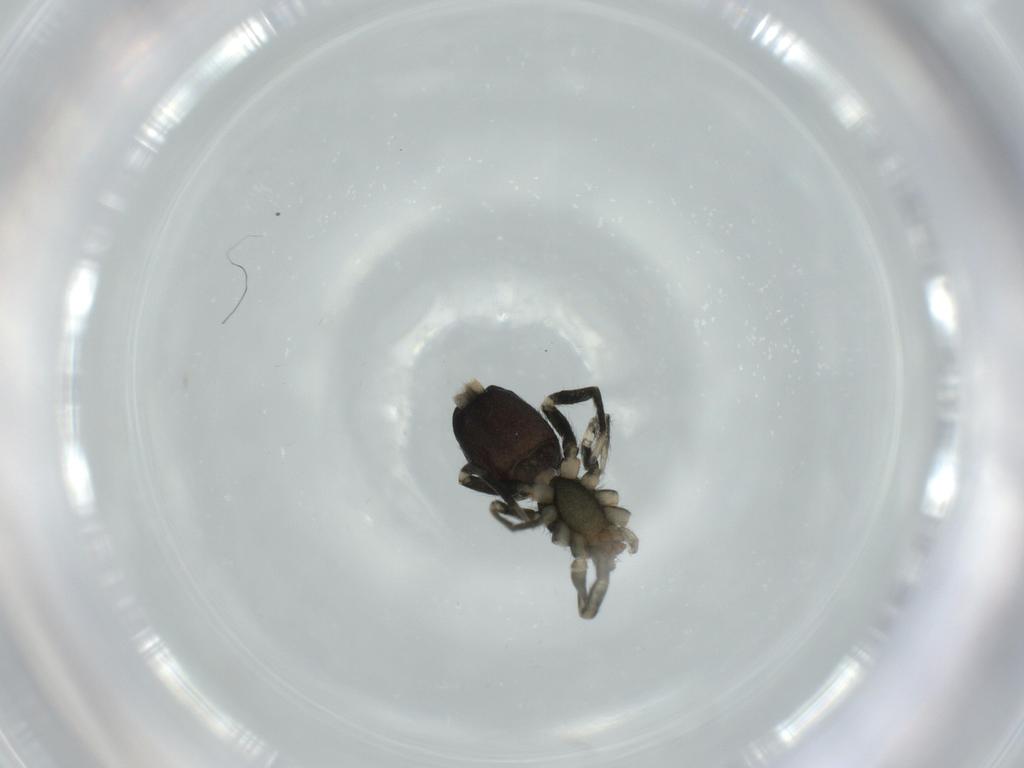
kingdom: Animalia
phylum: Arthropoda
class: Arachnida
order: Araneae
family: Gnaphosidae
